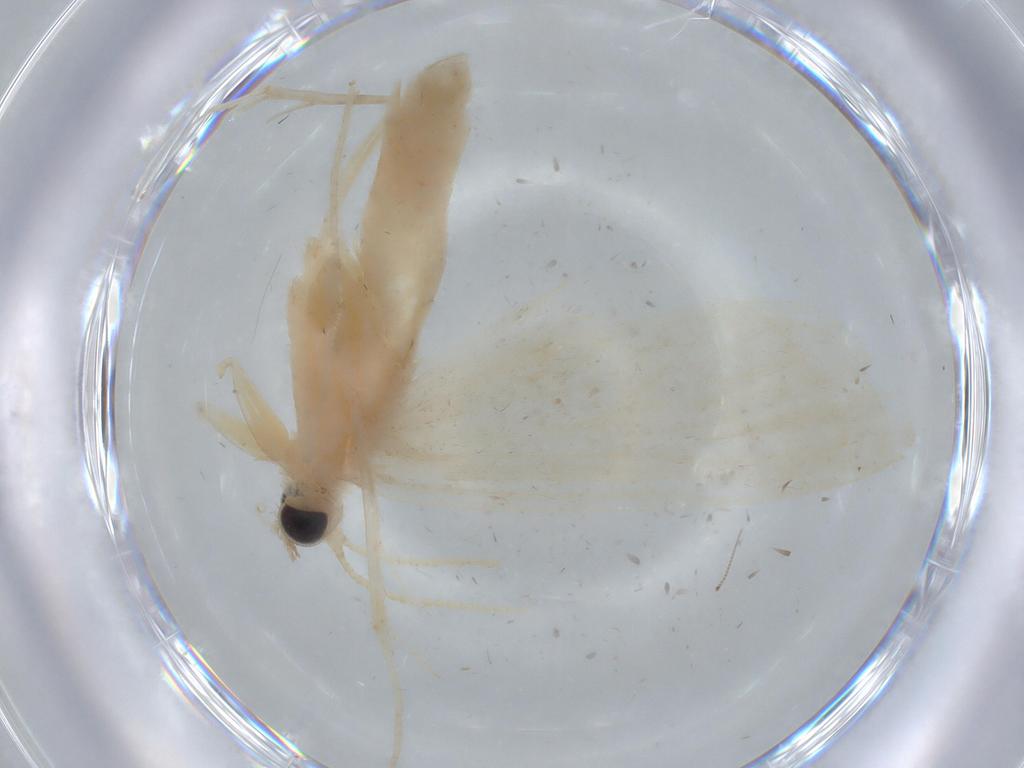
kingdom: Animalia
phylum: Arthropoda
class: Insecta
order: Lepidoptera
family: Crambidae
